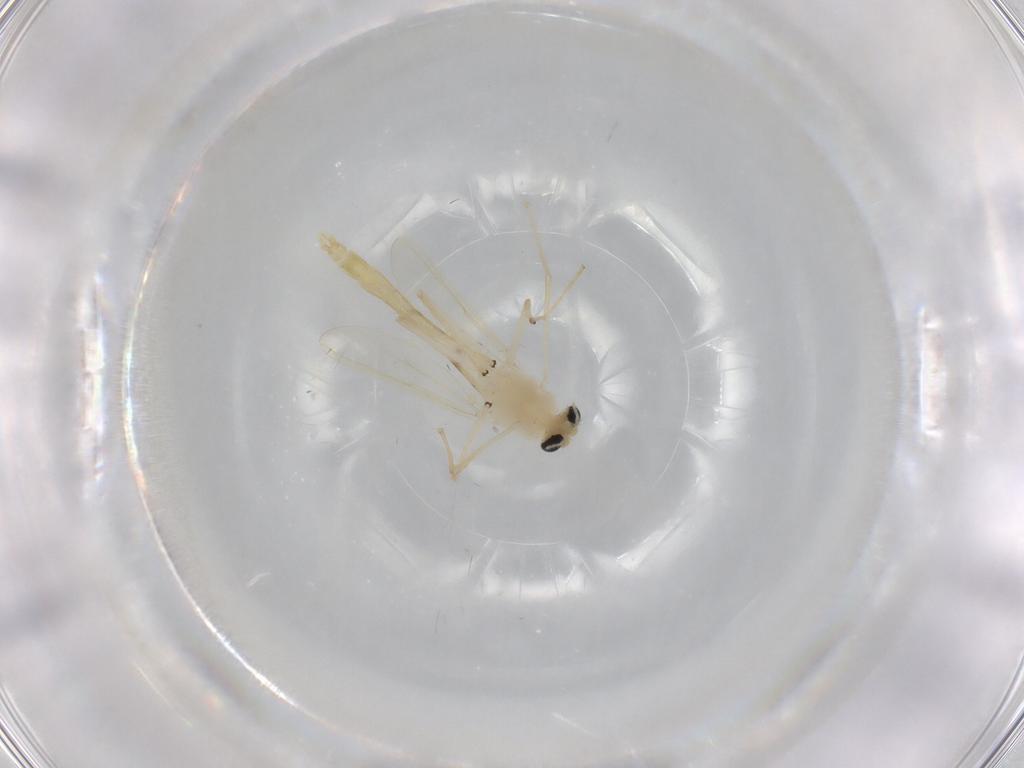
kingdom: Animalia
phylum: Arthropoda
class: Insecta
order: Diptera
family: Chironomidae
